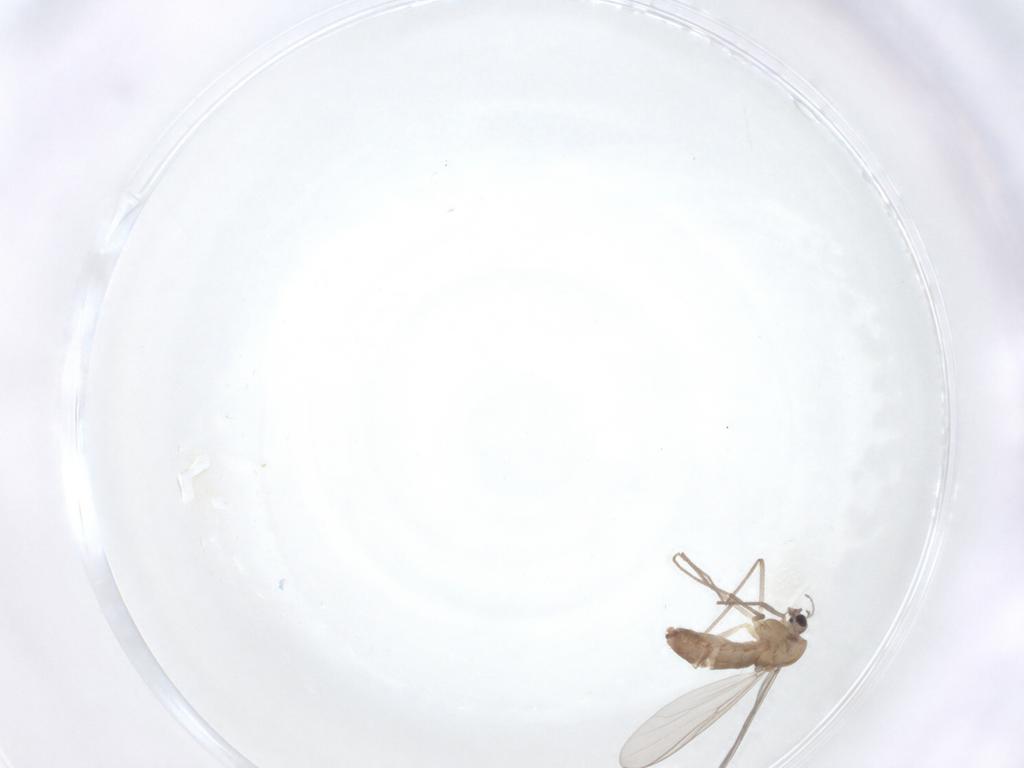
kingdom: Animalia
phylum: Arthropoda
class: Insecta
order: Diptera
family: Chironomidae
